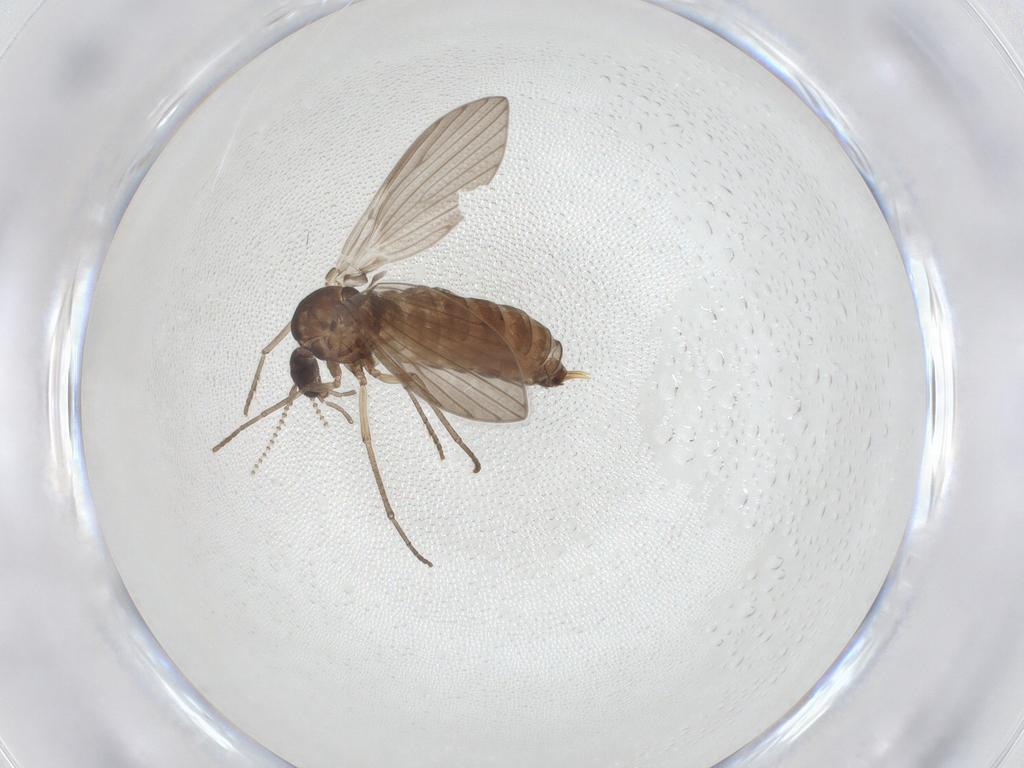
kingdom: Animalia
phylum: Arthropoda
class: Insecta
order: Diptera
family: Psychodidae
